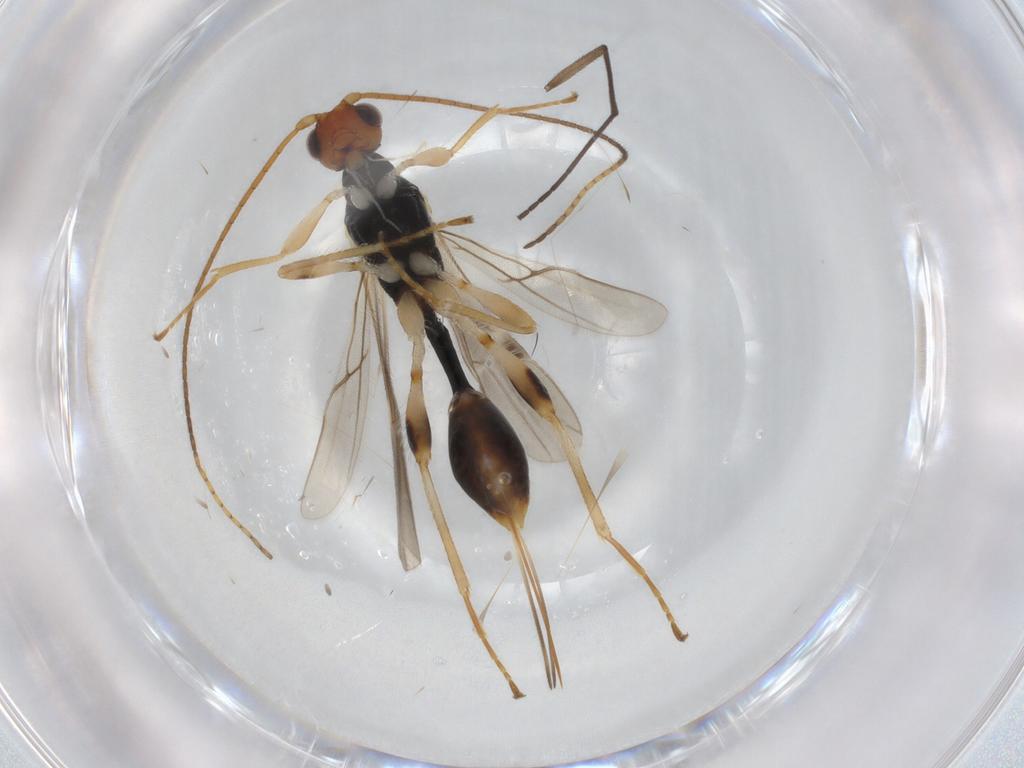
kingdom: Animalia
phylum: Arthropoda
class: Insecta
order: Hymenoptera
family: Braconidae
